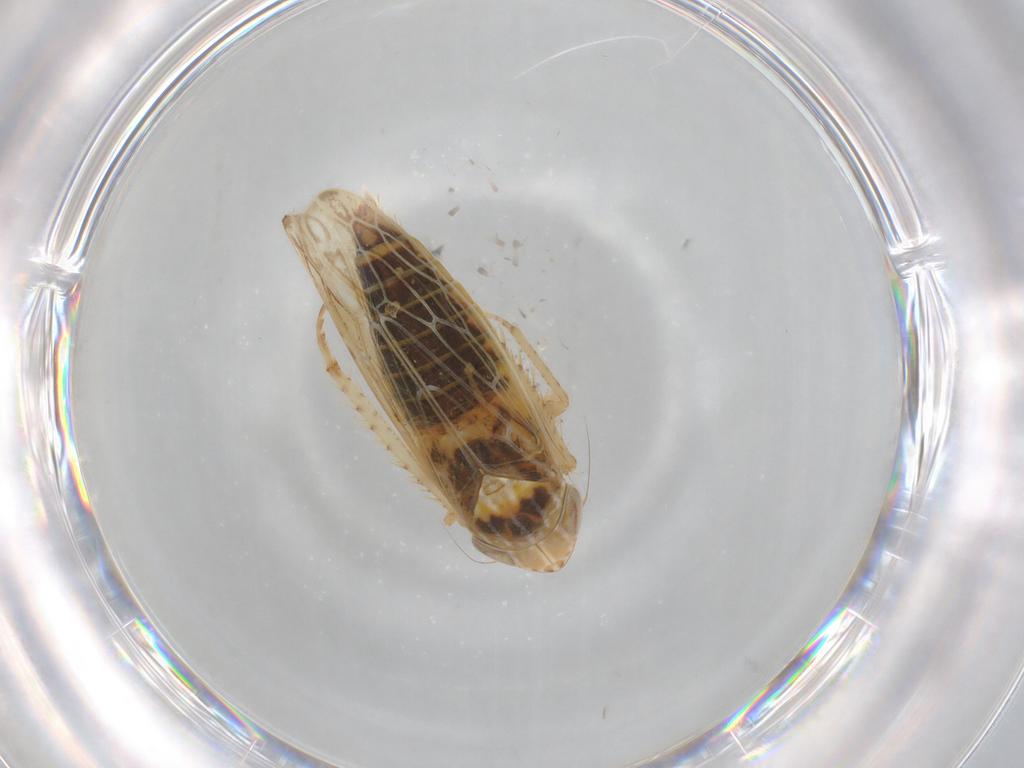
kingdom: Animalia
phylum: Arthropoda
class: Insecta
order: Hemiptera
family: Cicadellidae
